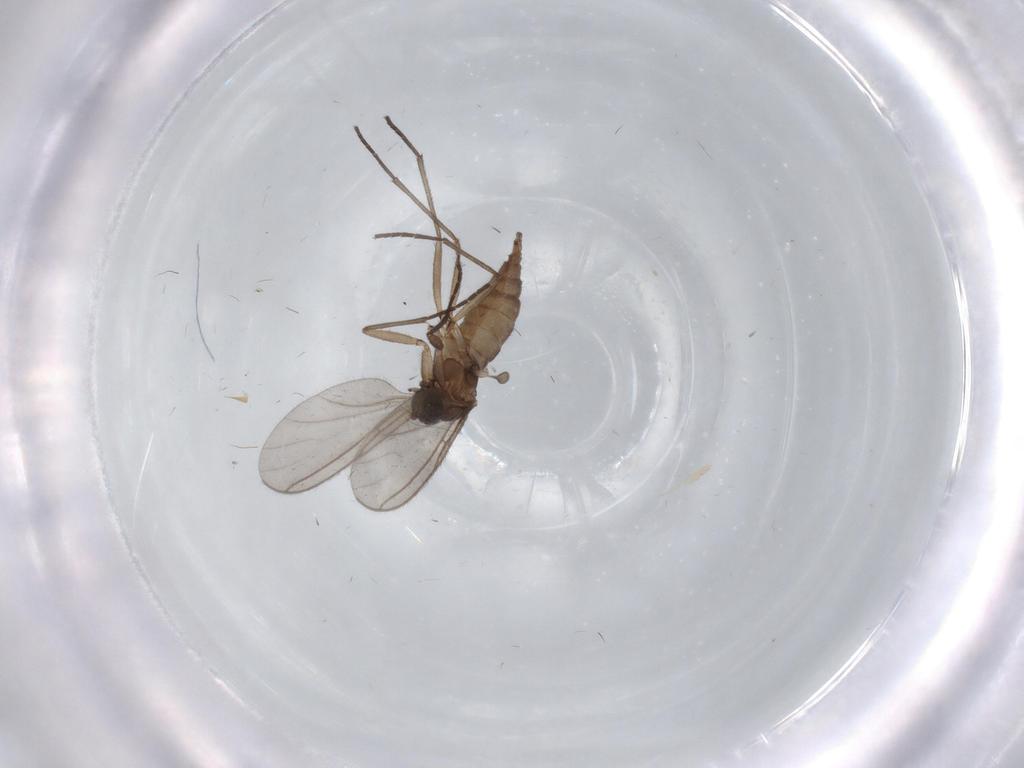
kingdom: Animalia
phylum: Arthropoda
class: Insecta
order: Diptera
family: Sciaridae
